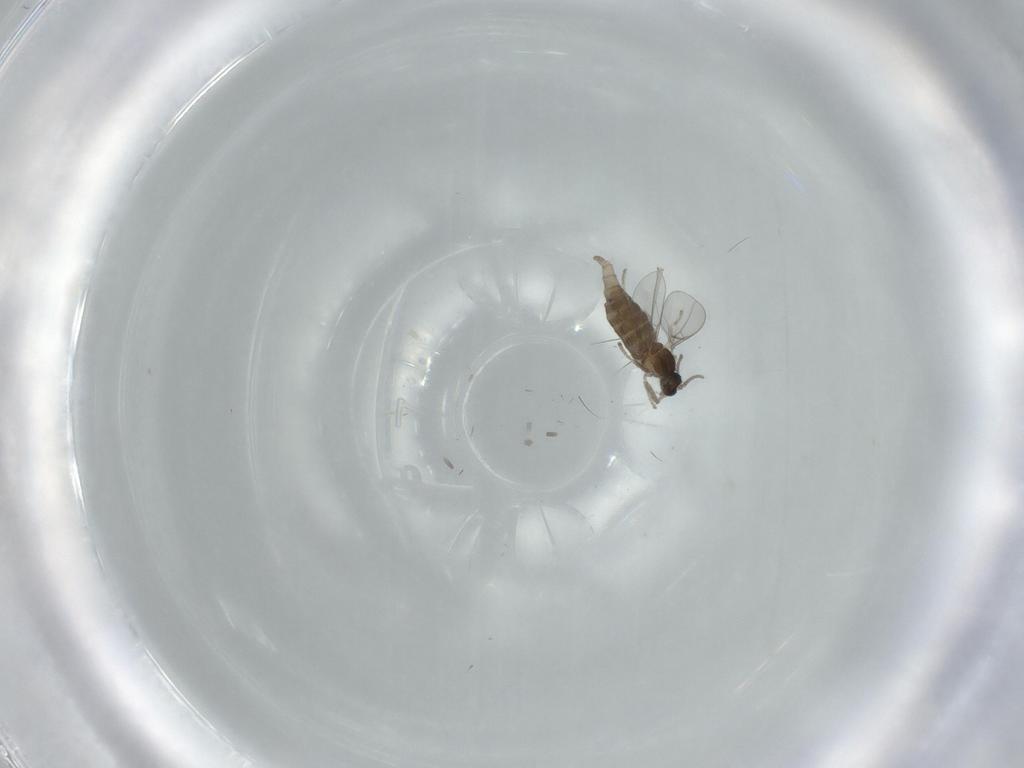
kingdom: Animalia
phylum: Arthropoda
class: Insecta
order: Diptera
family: Cecidomyiidae
